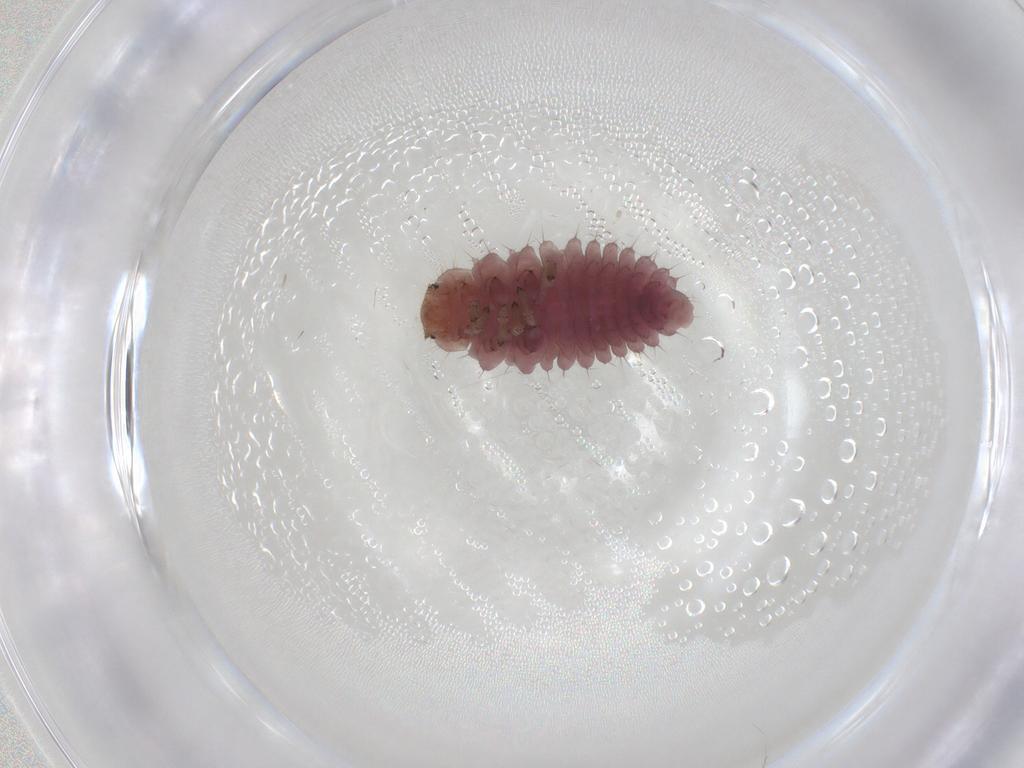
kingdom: Animalia
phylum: Arthropoda
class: Insecta
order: Coleoptera
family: Coccinellidae
